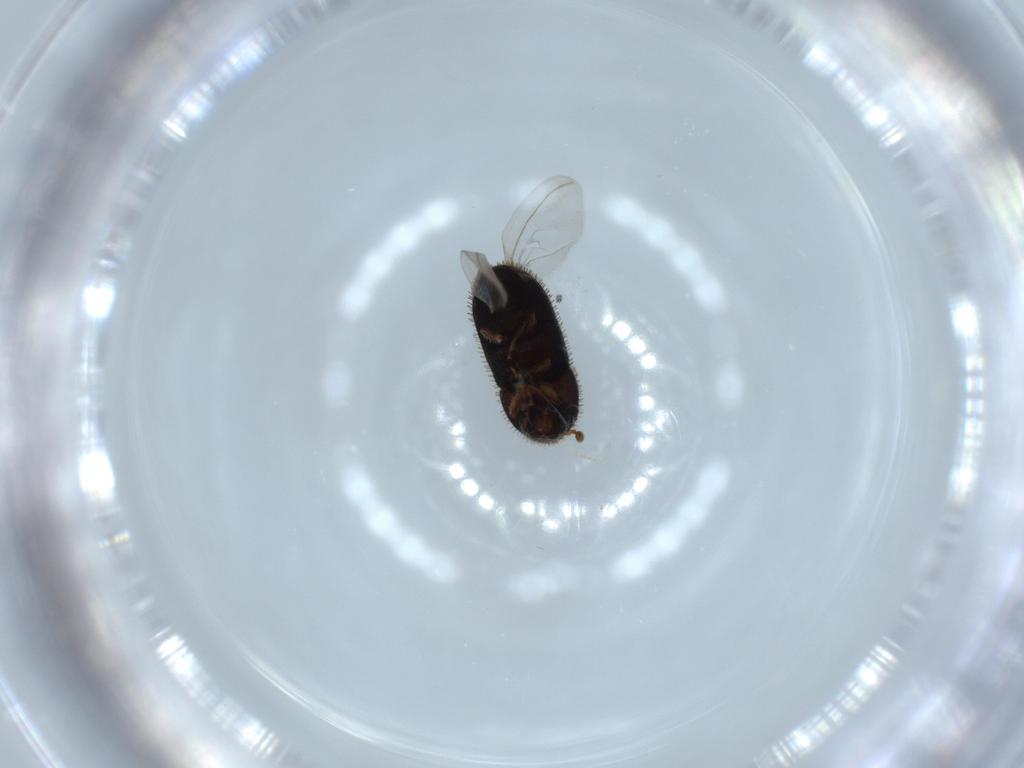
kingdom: Animalia
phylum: Arthropoda
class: Insecta
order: Coleoptera
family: Curculionidae
